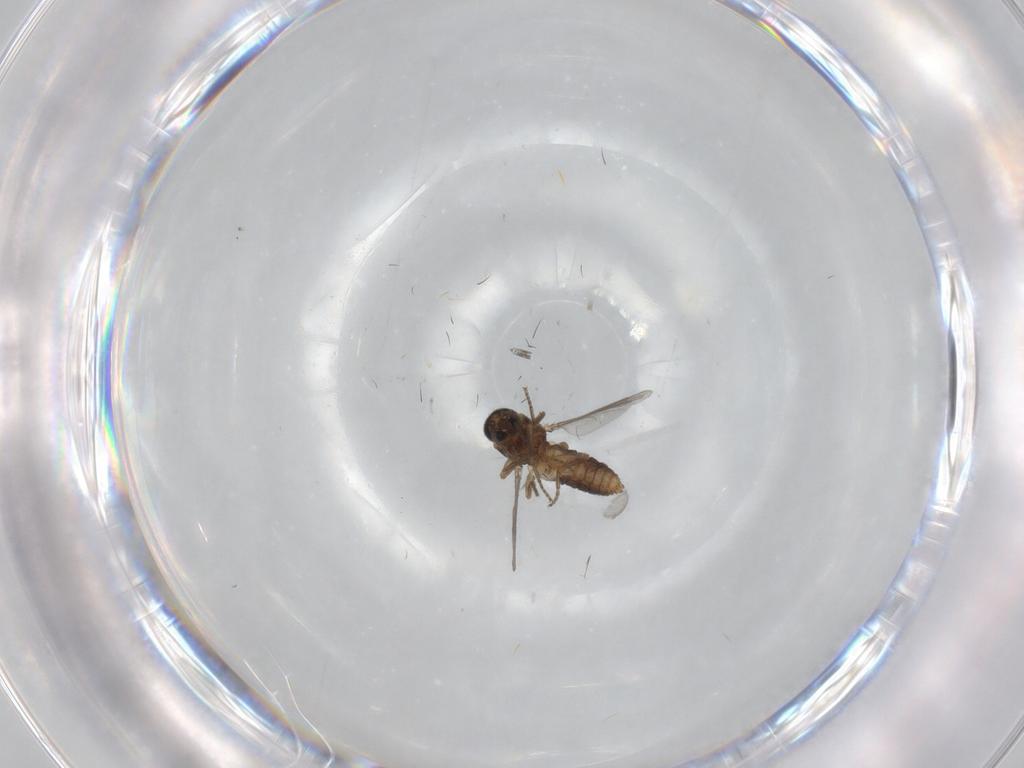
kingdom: Animalia
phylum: Arthropoda
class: Insecta
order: Diptera
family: Ceratopogonidae
